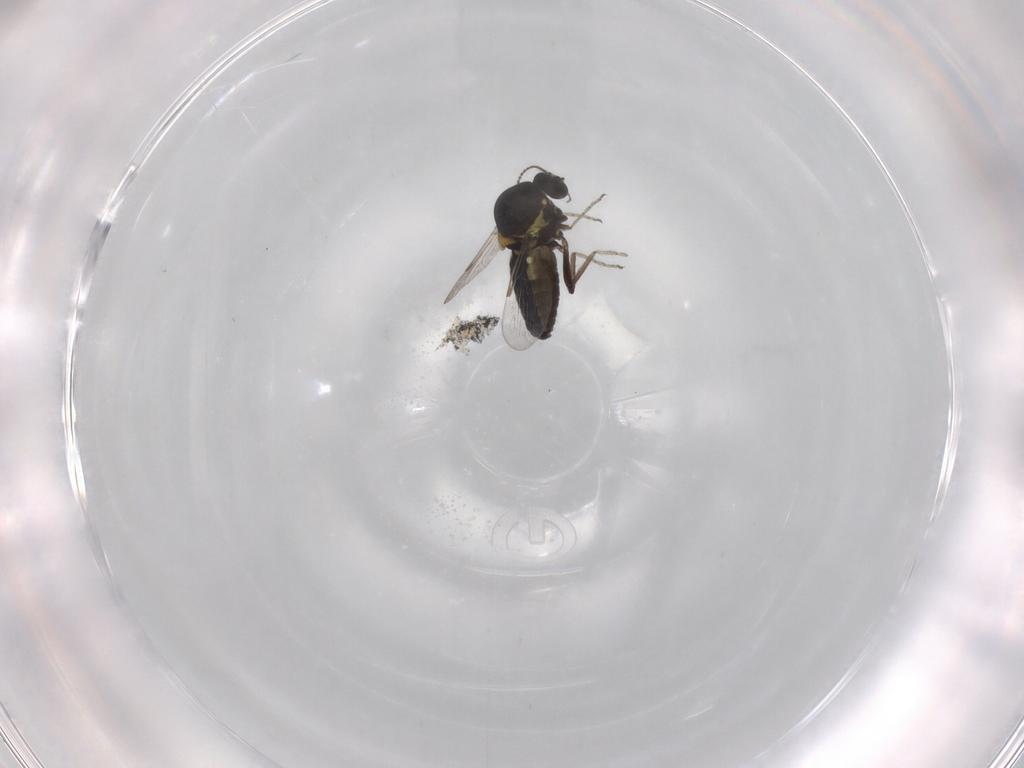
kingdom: Animalia
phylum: Arthropoda
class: Insecta
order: Diptera
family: Ceratopogonidae
